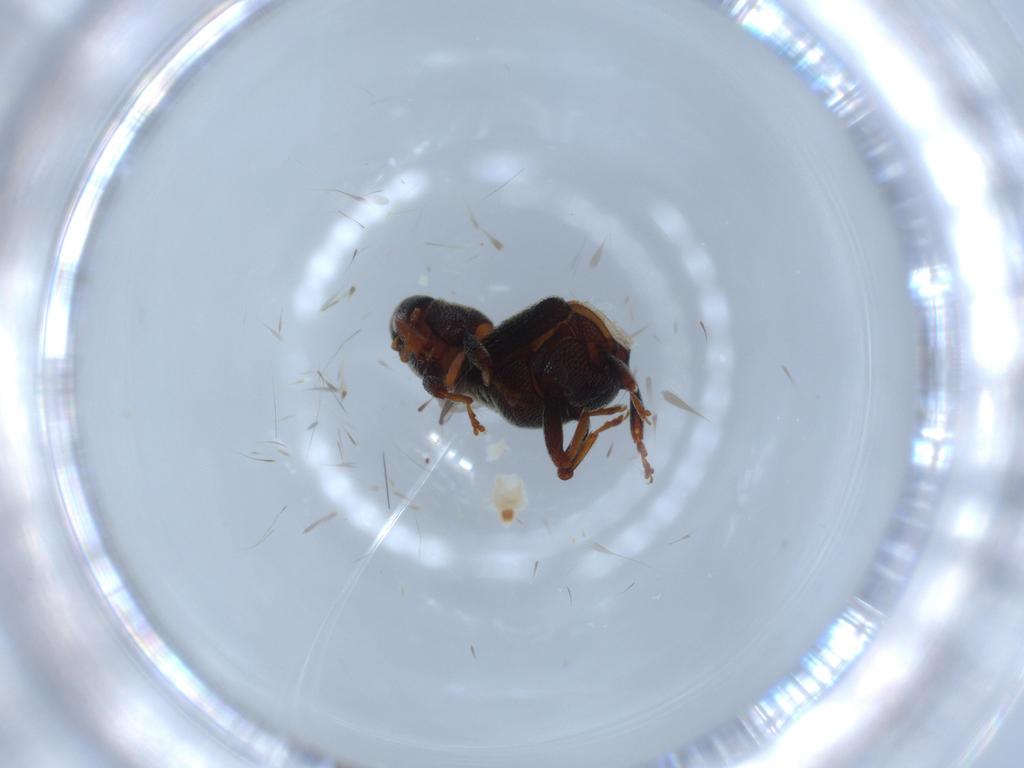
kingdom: Animalia
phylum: Arthropoda
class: Insecta
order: Coleoptera
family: Curculionidae
